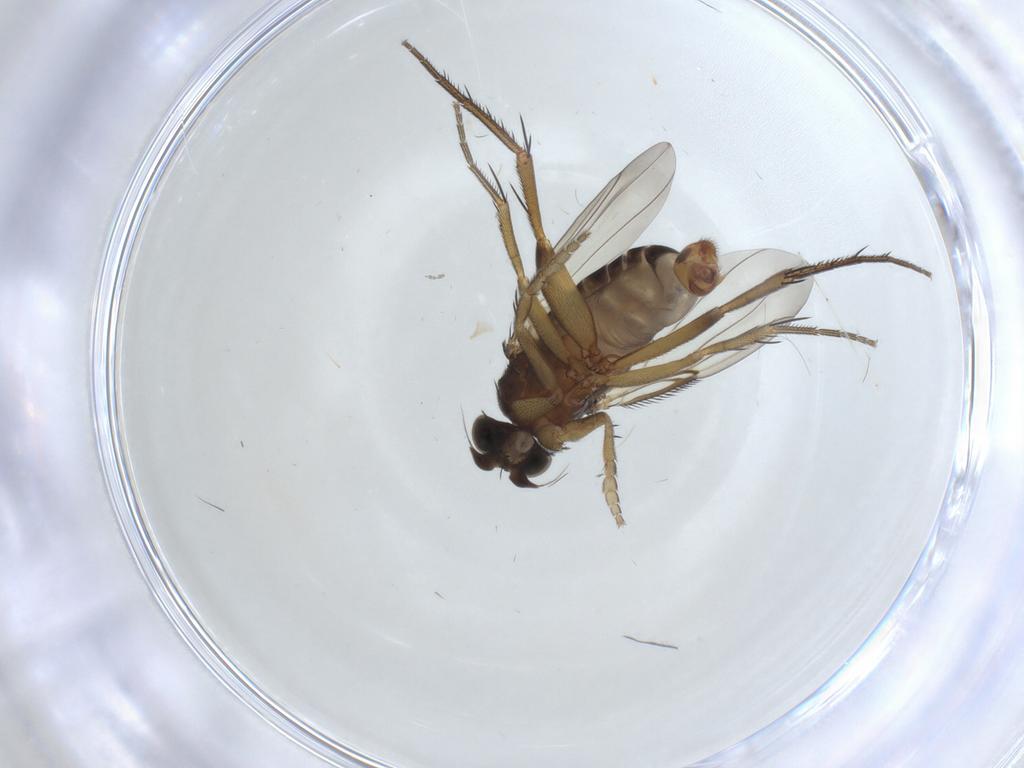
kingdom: Animalia
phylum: Arthropoda
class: Insecta
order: Diptera
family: Phoridae
